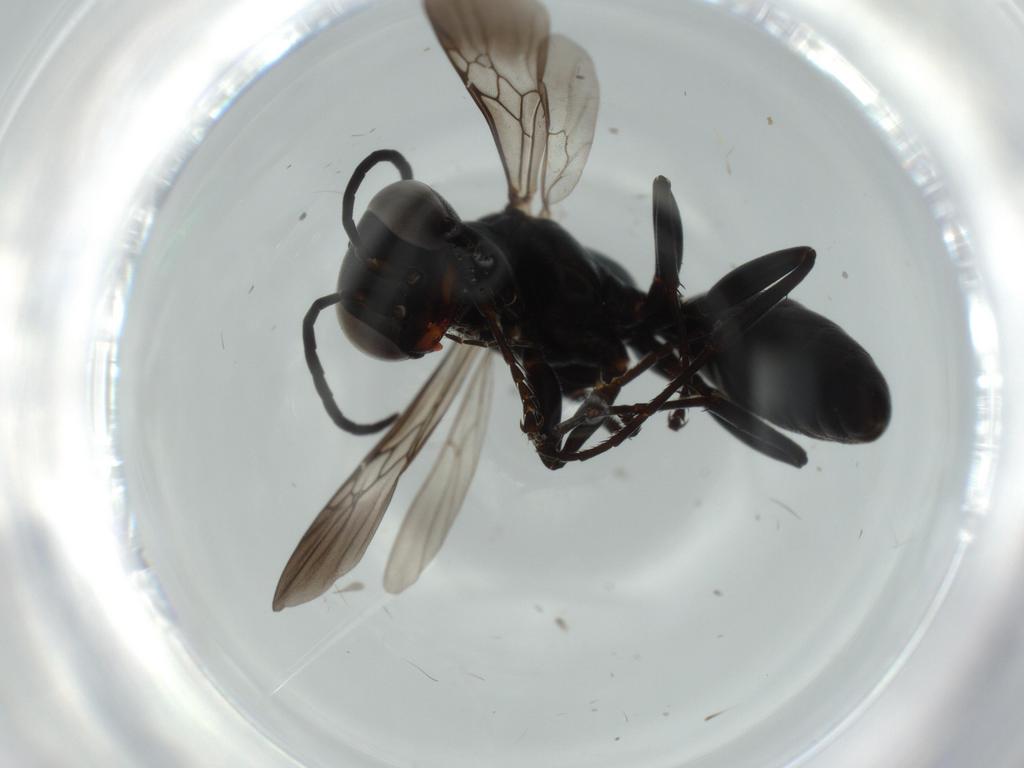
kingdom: Animalia
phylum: Arthropoda
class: Insecta
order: Hymenoptera
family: Crabronidae
